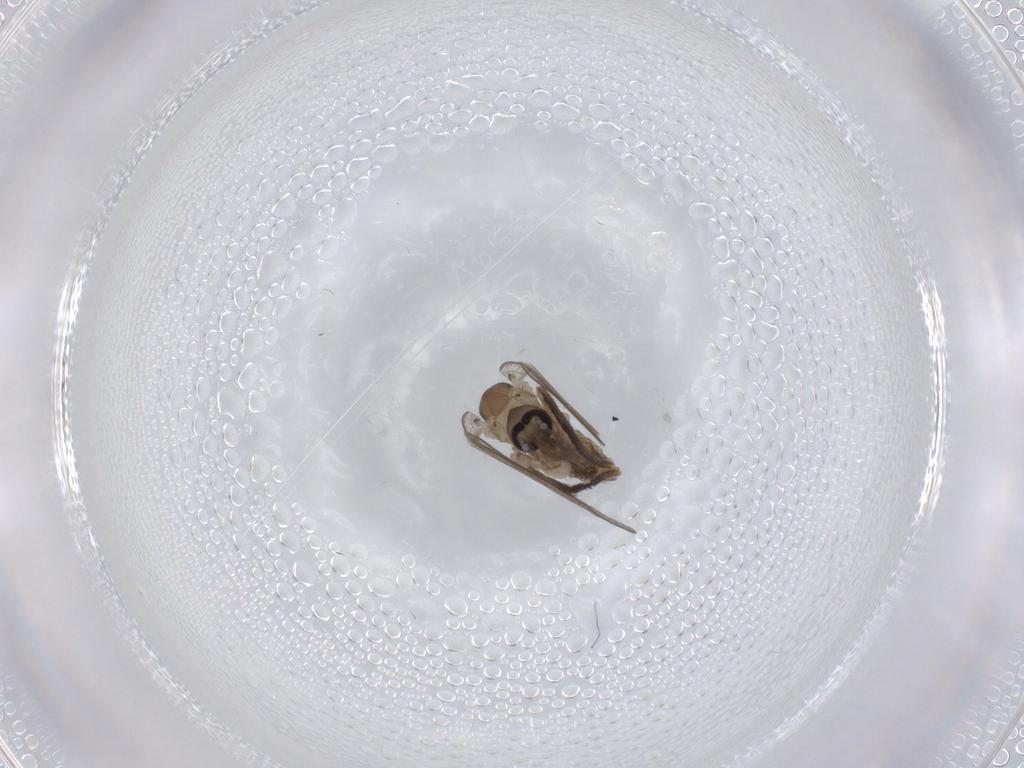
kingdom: Animalia
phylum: Arthropoda
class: Insecta
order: Diptera
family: Psychodidae
